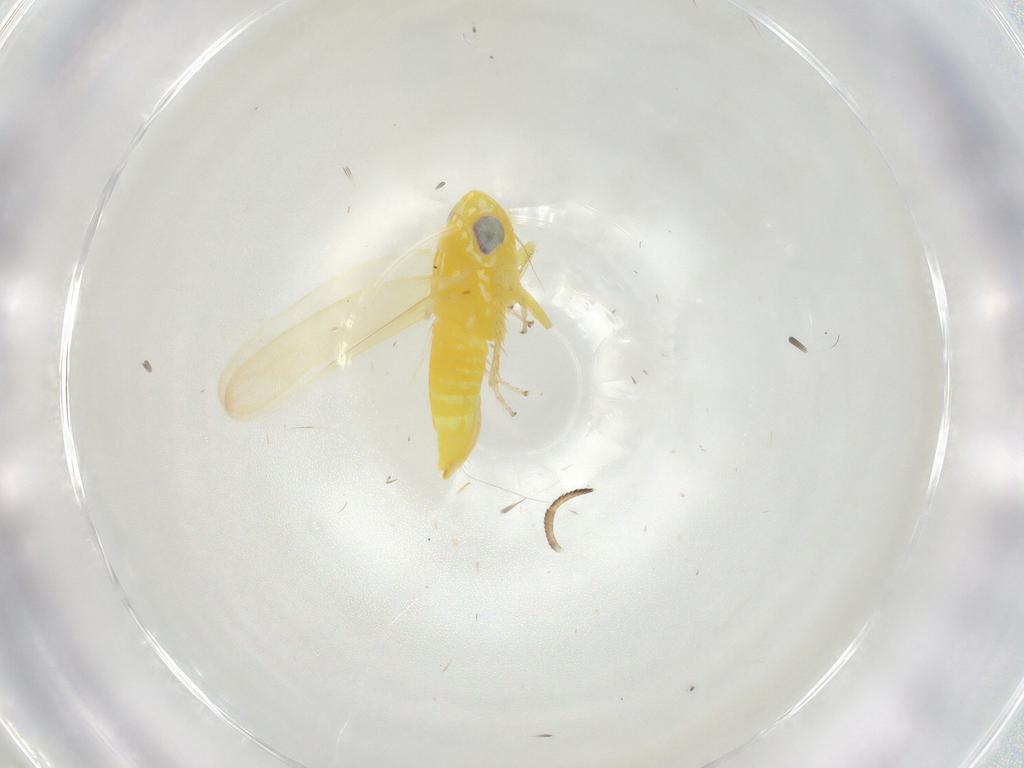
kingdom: Animalia
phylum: Arthropoda
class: Insecta
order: Hemiptera
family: Cicadellidae
